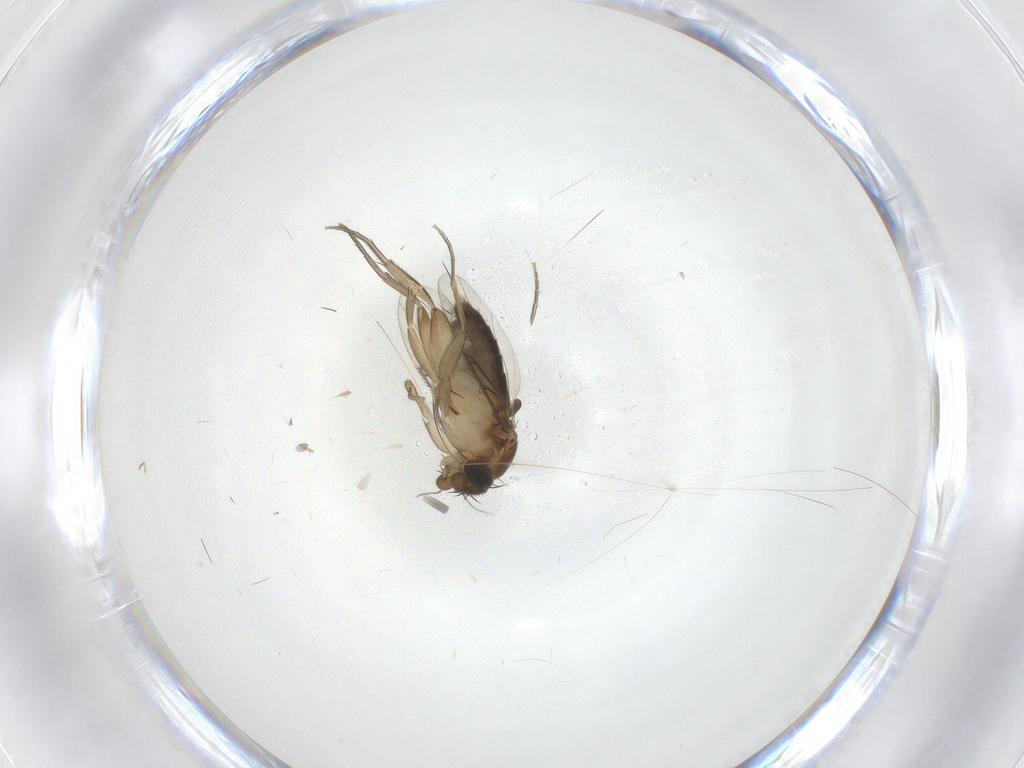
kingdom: Animalia
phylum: Arthropoda
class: Insecta
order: Diptera
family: Phoridae
